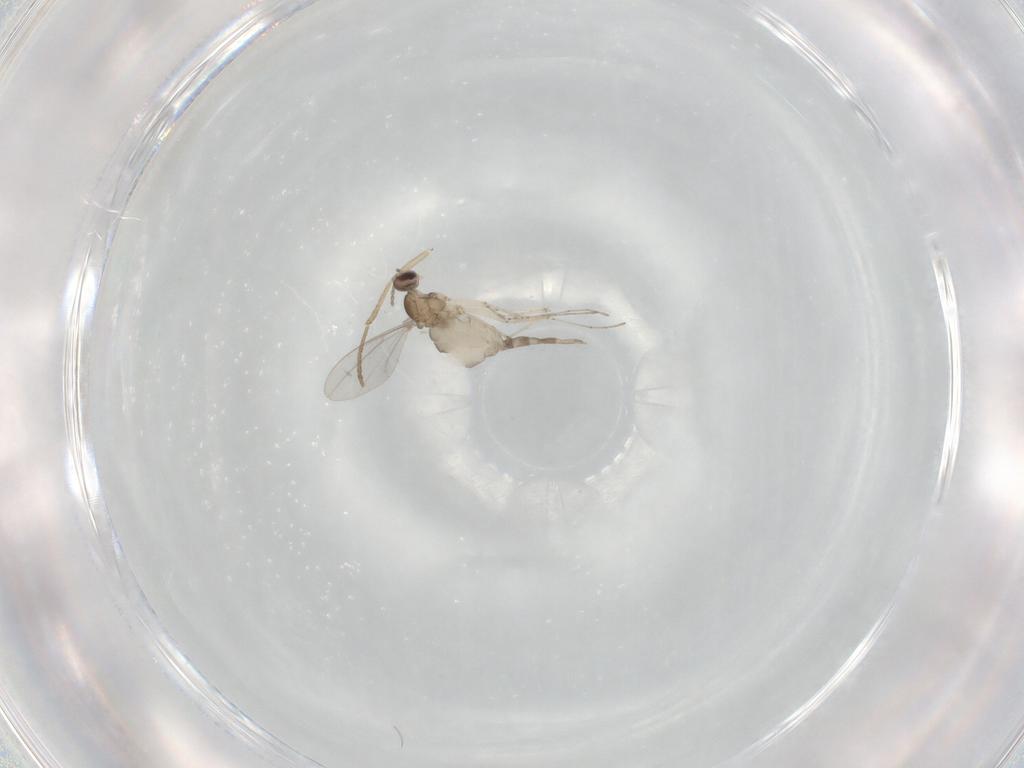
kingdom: Animalia
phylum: Arthropoda
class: Insecta
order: Diptera
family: Cecidomyiidae
